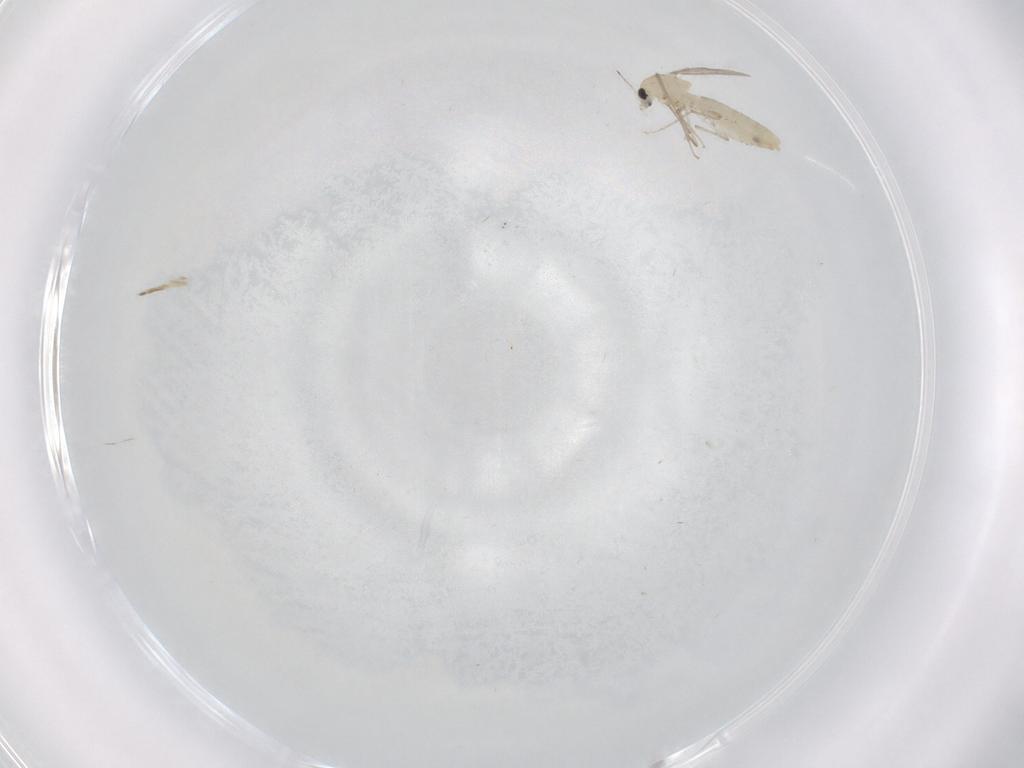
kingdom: Animalia
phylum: Arthropoda
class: Insecta
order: Diptera
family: Chironomidae
